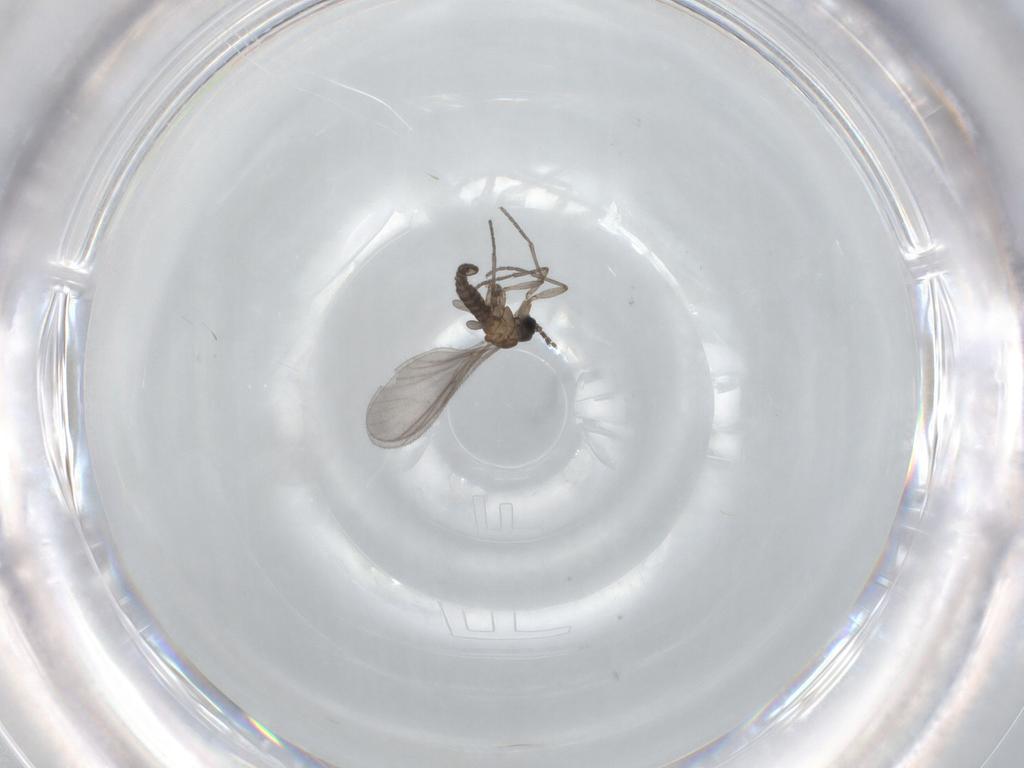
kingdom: Animalia
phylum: Arthropoda
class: Insecta
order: Diptera
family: Sciaridae
